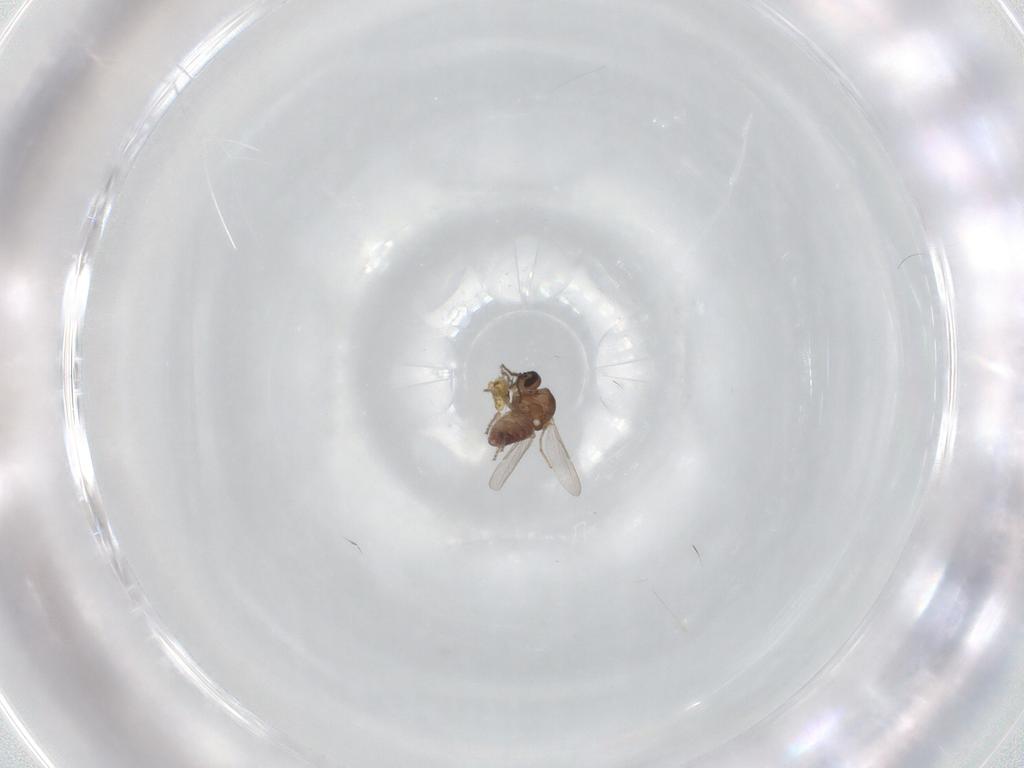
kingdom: Animalia
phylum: Arthropoda
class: Insecta
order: Diptera
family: Ceratopogonidae
